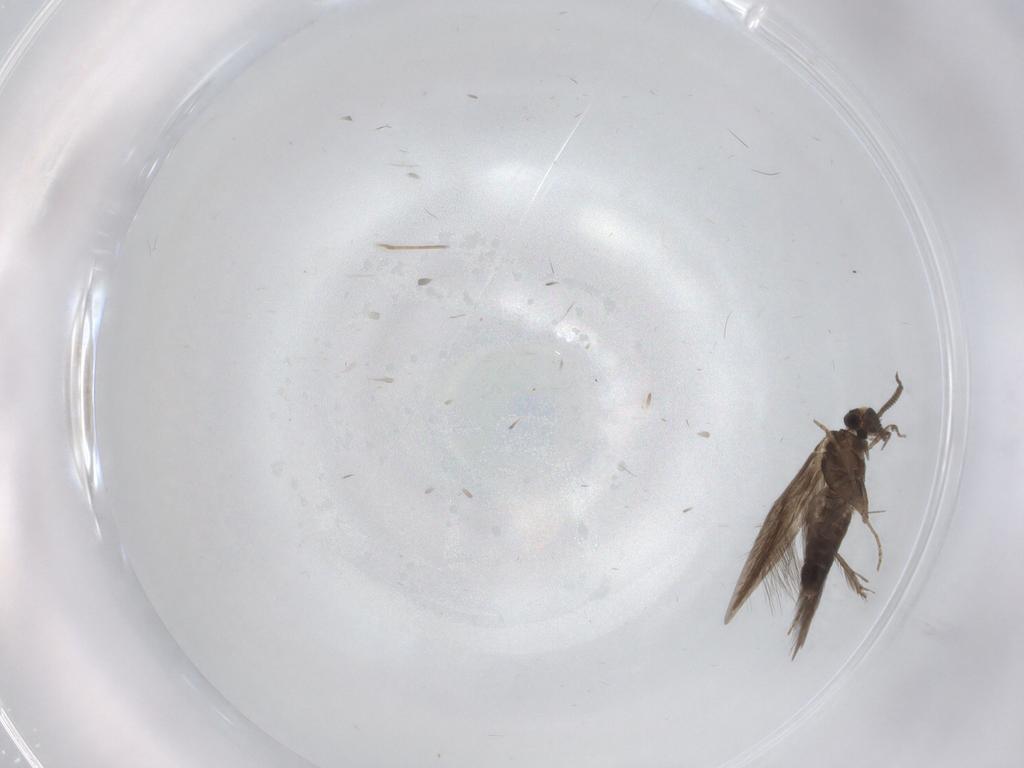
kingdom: Animalia
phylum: Arthropoda
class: Insecta
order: Trichoptera
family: Hydroptilidae
